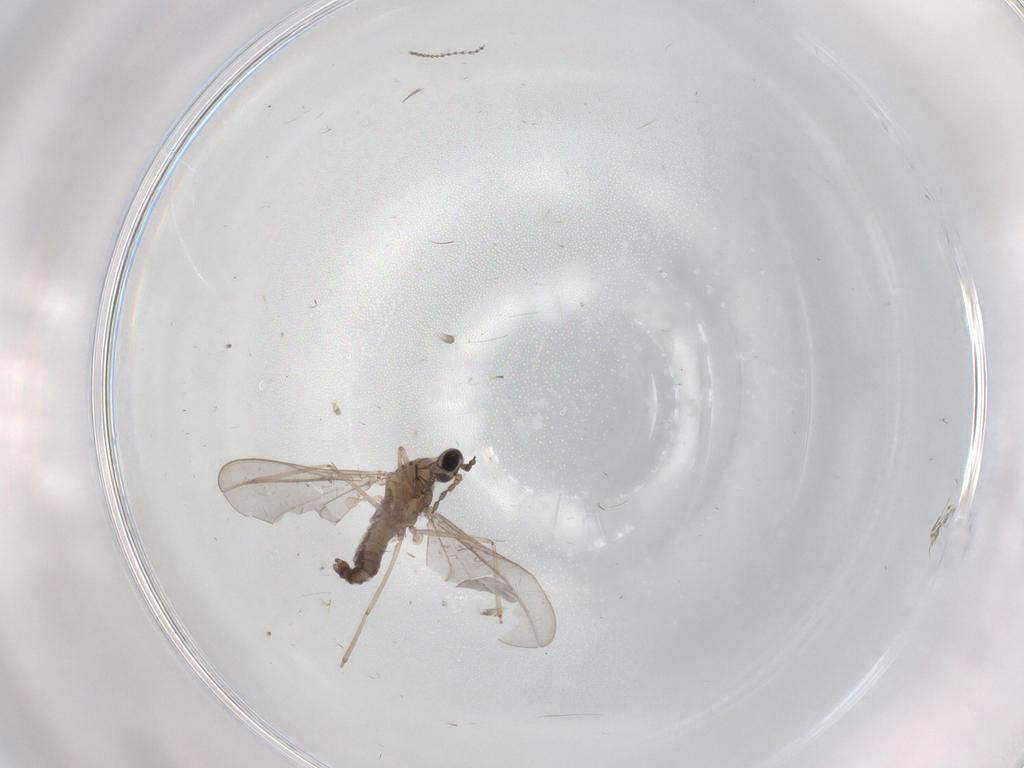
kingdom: Animalia
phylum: Arthropoda
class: Insecta
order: Diptera
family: Cecidomyiidae
